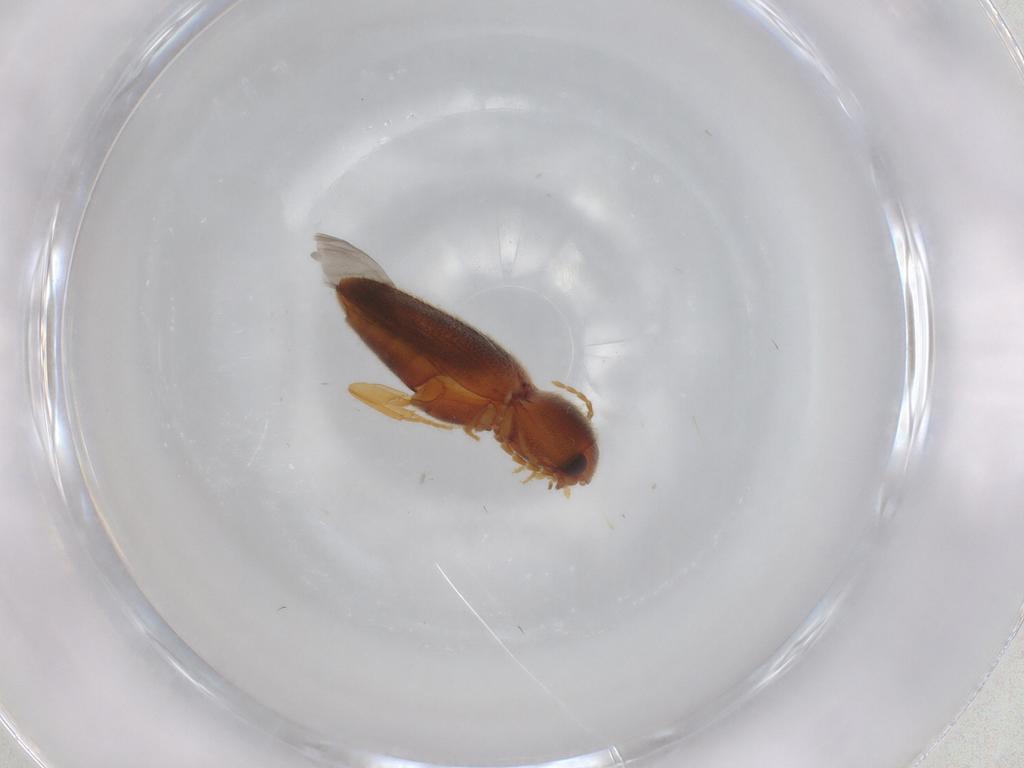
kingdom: Animalia
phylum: Arthropoda
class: Insecta
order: Coleoptera
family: Elateridae
